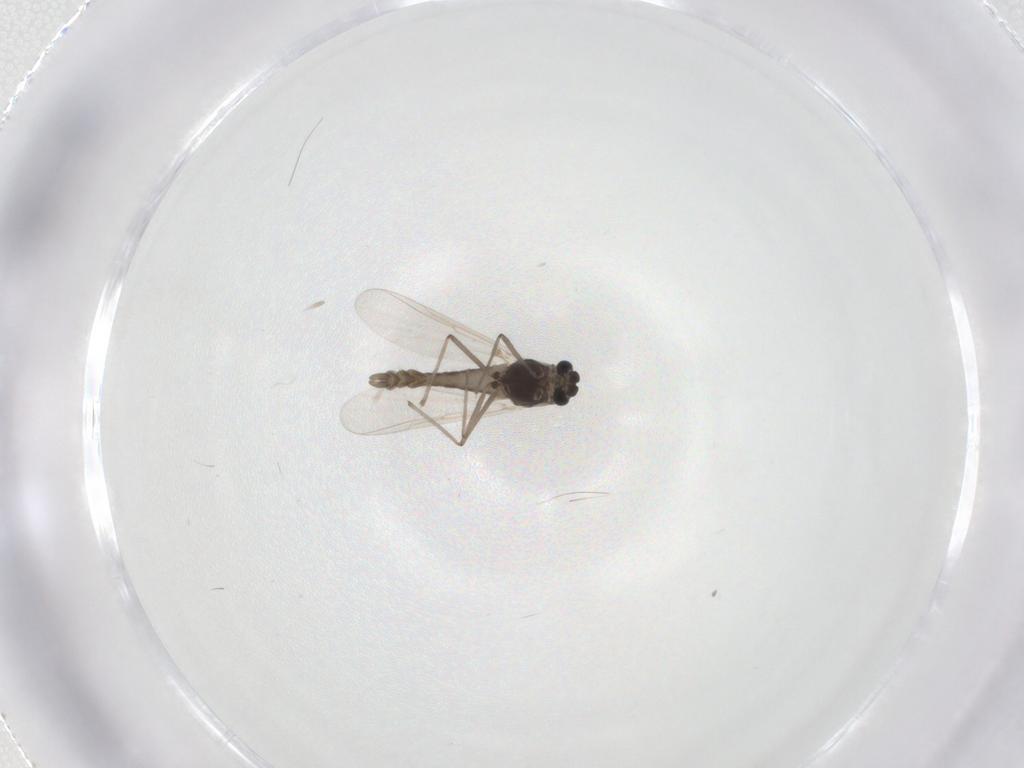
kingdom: Animalia
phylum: Arthropoda
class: Insecta
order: Diptera
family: Chironomidae
